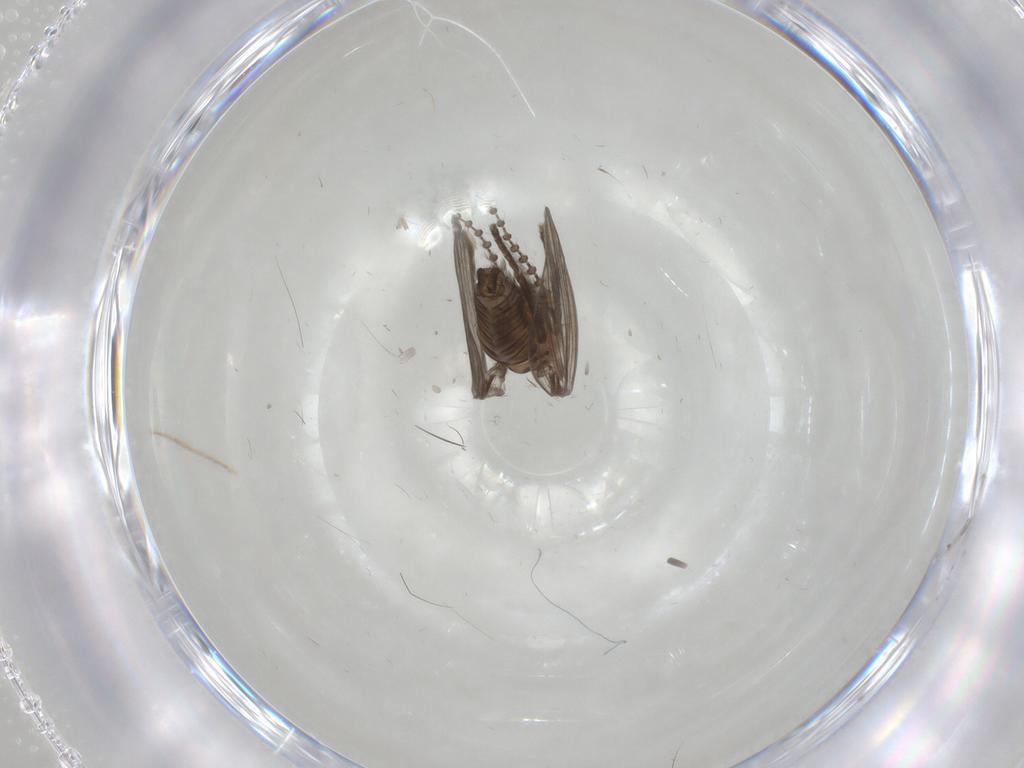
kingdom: Animalia
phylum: Arthropoda
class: Insecta
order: Diptera
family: Psychodidae
